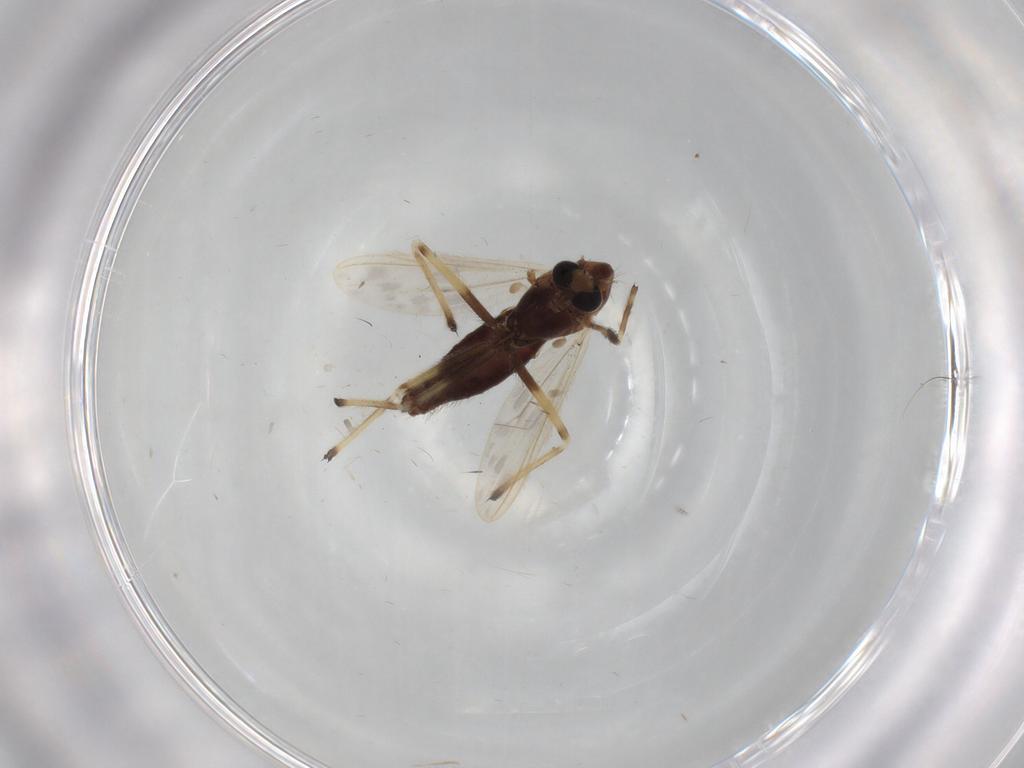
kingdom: Animalia
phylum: Arthropoda
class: Insecta
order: Diptera
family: Chironomidae
